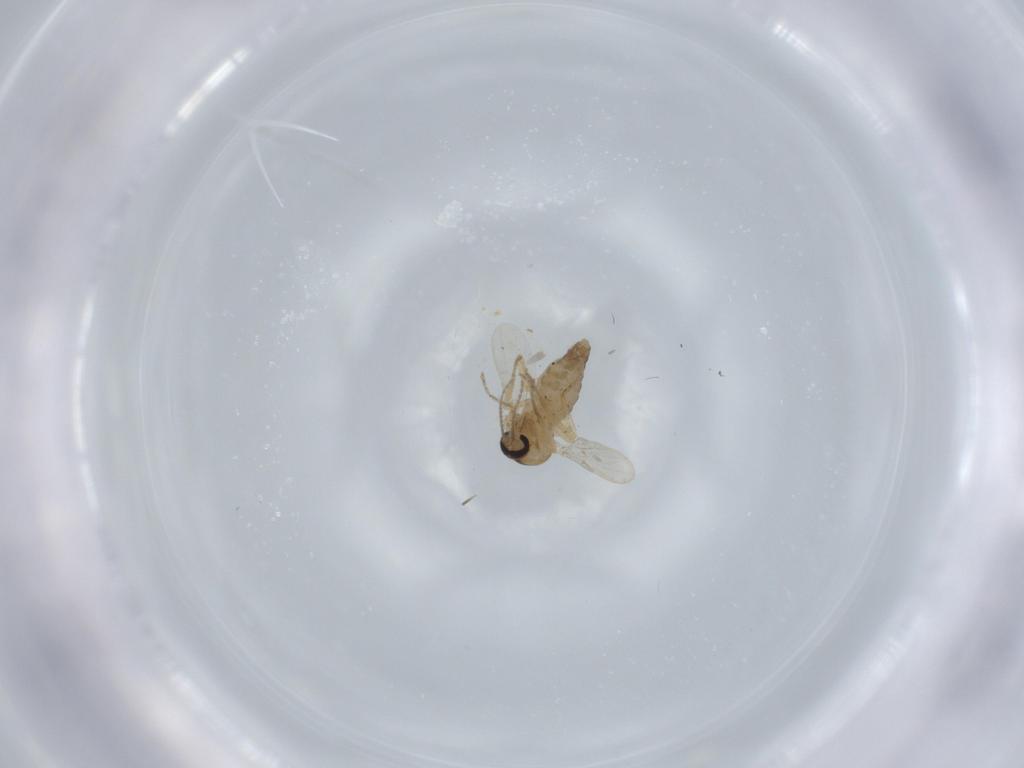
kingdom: Animalia
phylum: Arthropoda
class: Insecta
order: Diptera
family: Ceratopogonidae
